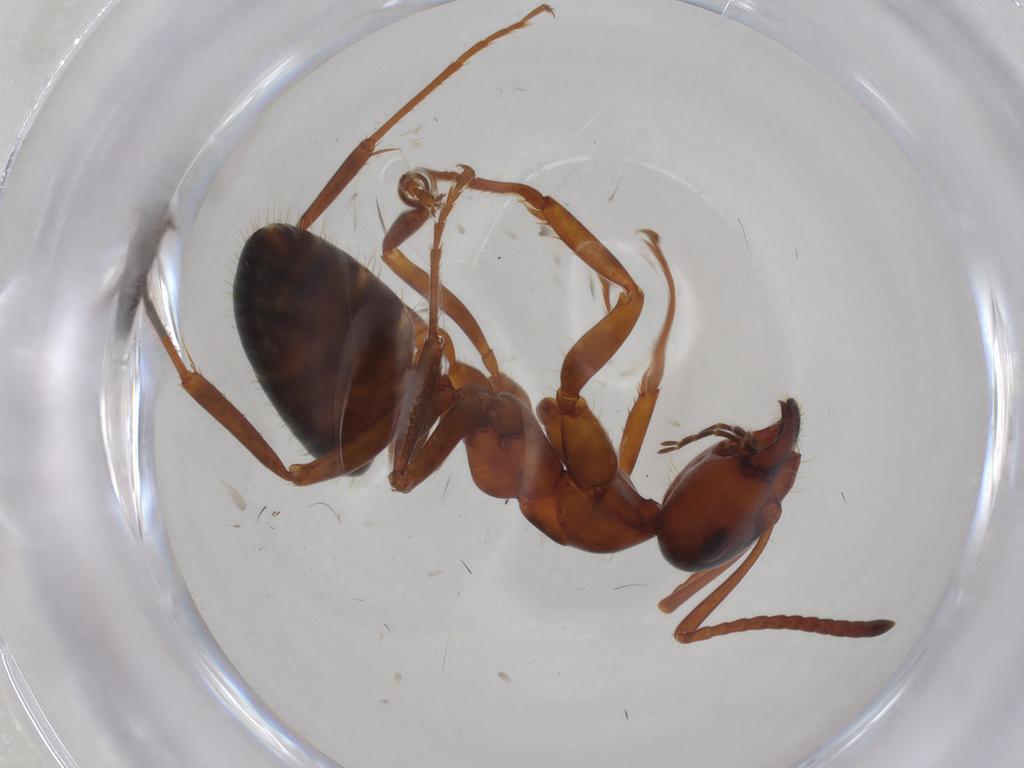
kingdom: Animalia
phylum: Arthropoda
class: Insecta
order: Hymenoptera
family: Formicidae
